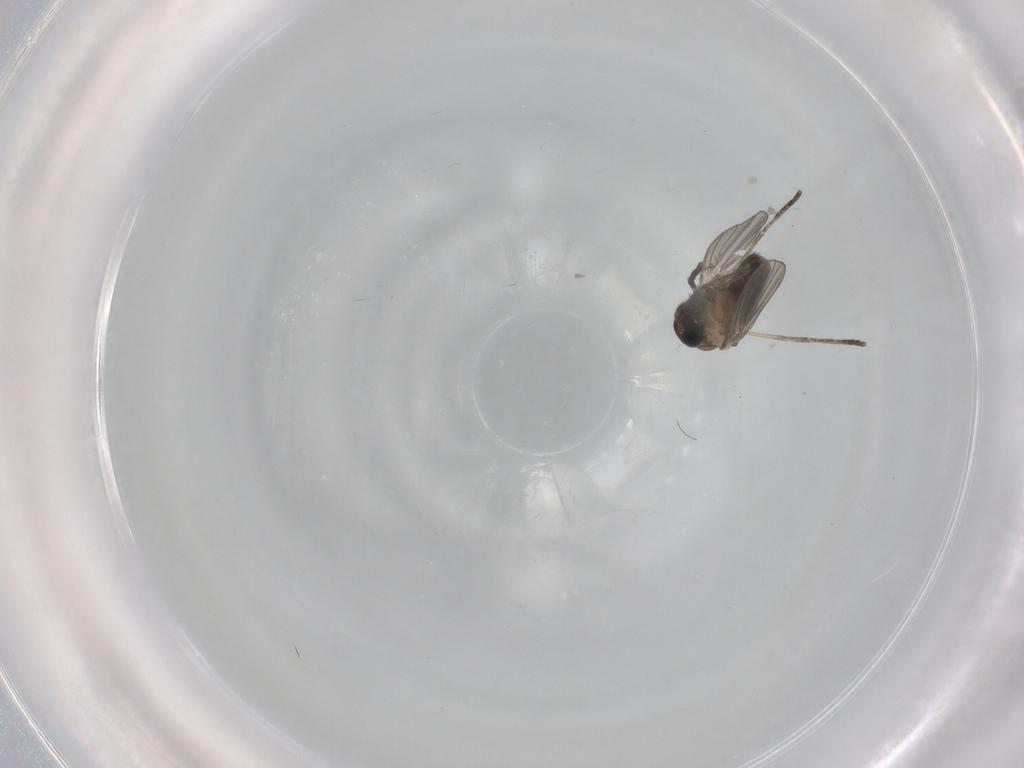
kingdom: Animalia
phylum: Arthropoda
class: Insecta
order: Diptera
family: Psychodidae
